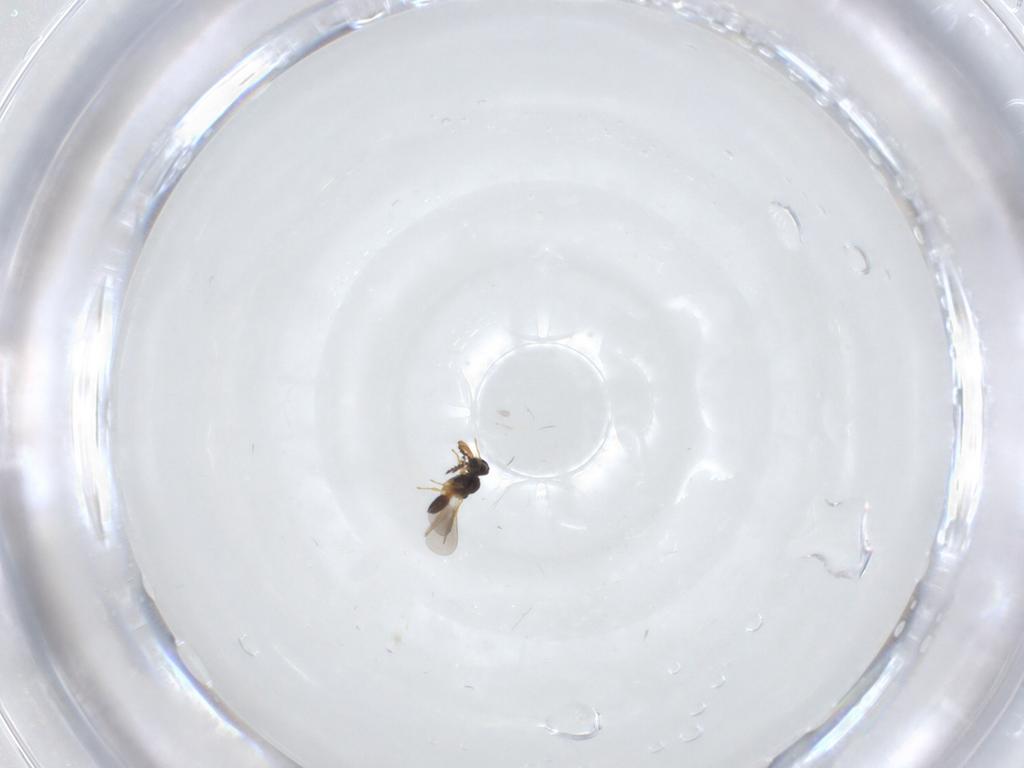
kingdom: Animalia
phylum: Arthropoda
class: Insecta
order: Hymenoptera
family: Platygastridae
